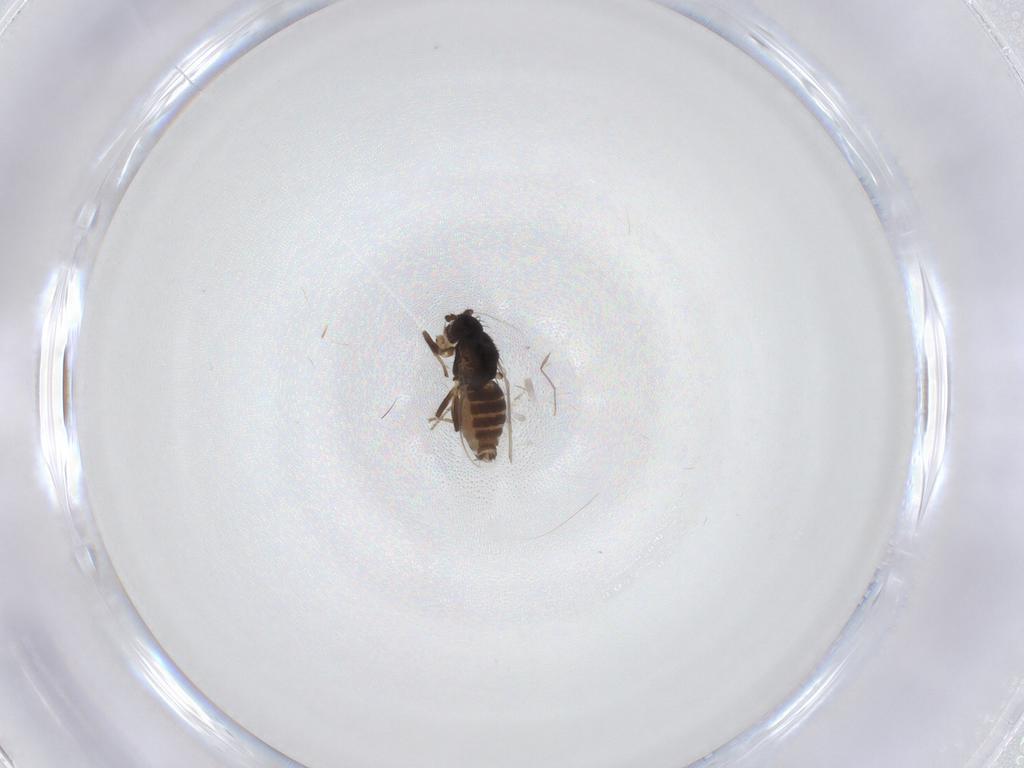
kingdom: Animalia
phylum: Arthropoda
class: Insecta
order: Diptera
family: Sphaeroceridae
